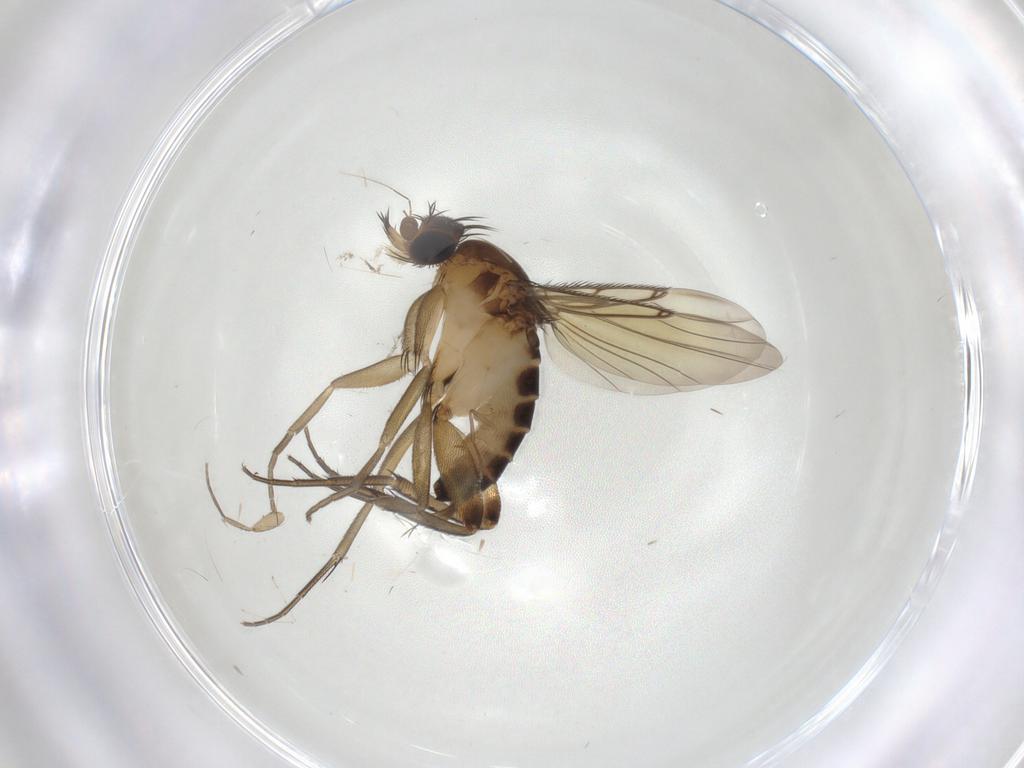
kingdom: Animalia
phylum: Arthropoda
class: Insecta
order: Diptera
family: Phoridae
